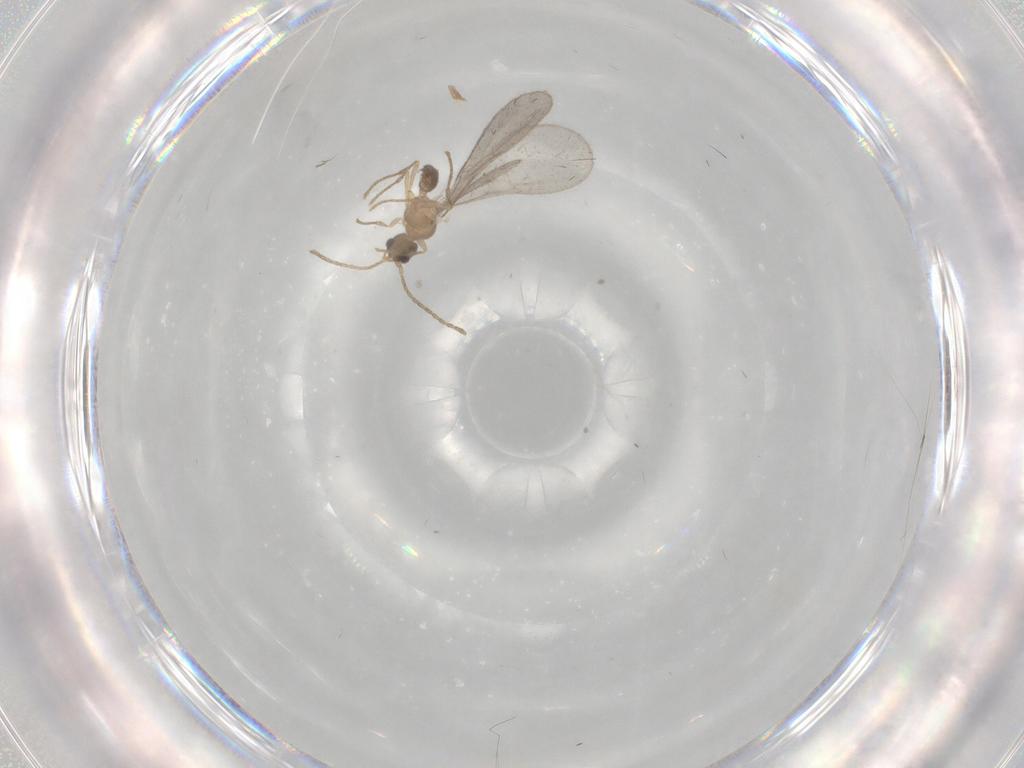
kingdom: Animalia
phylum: Arthropoda
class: Insecta
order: Hymenoptera
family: Formicidae
